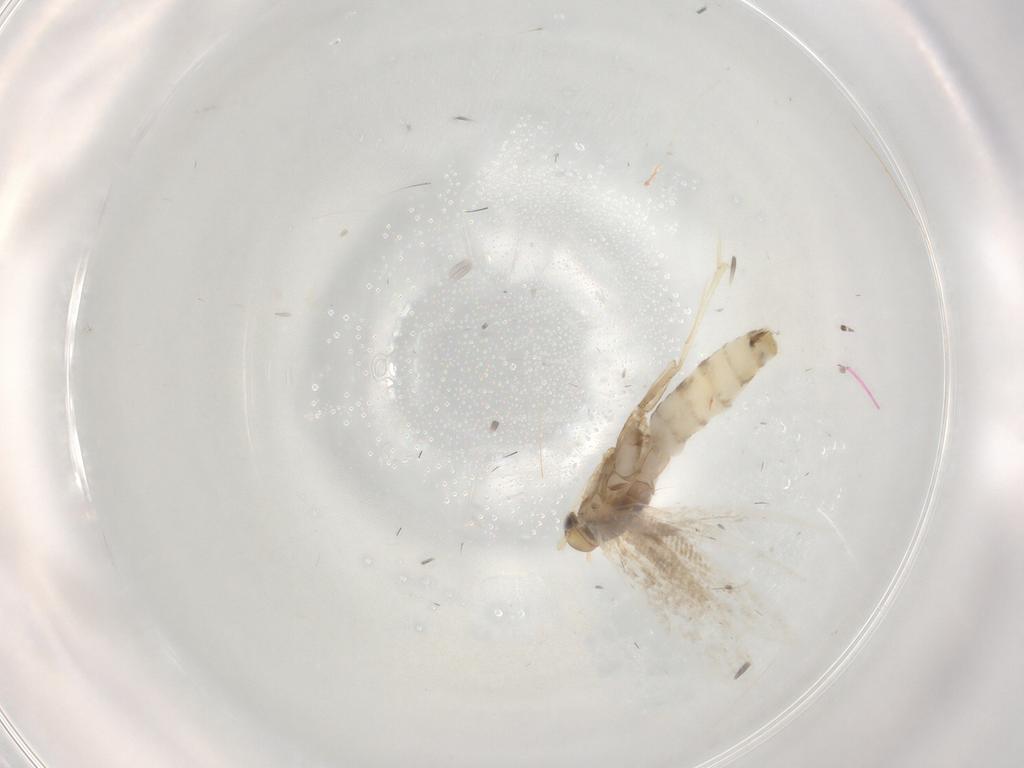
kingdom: Animalia
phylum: Arthropoda
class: Insecta
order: Lepidoptera
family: Gracillariidae
